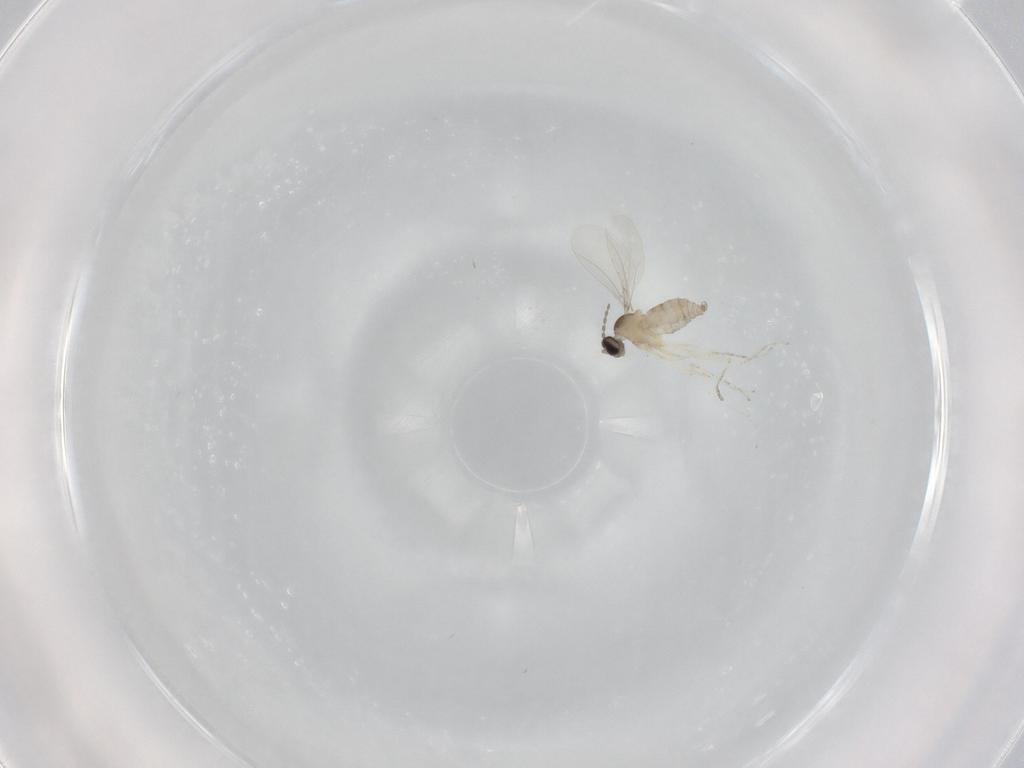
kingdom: Animalia
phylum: Arthropoda
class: Insecta
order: Diptera
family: Cecidomyiidae
